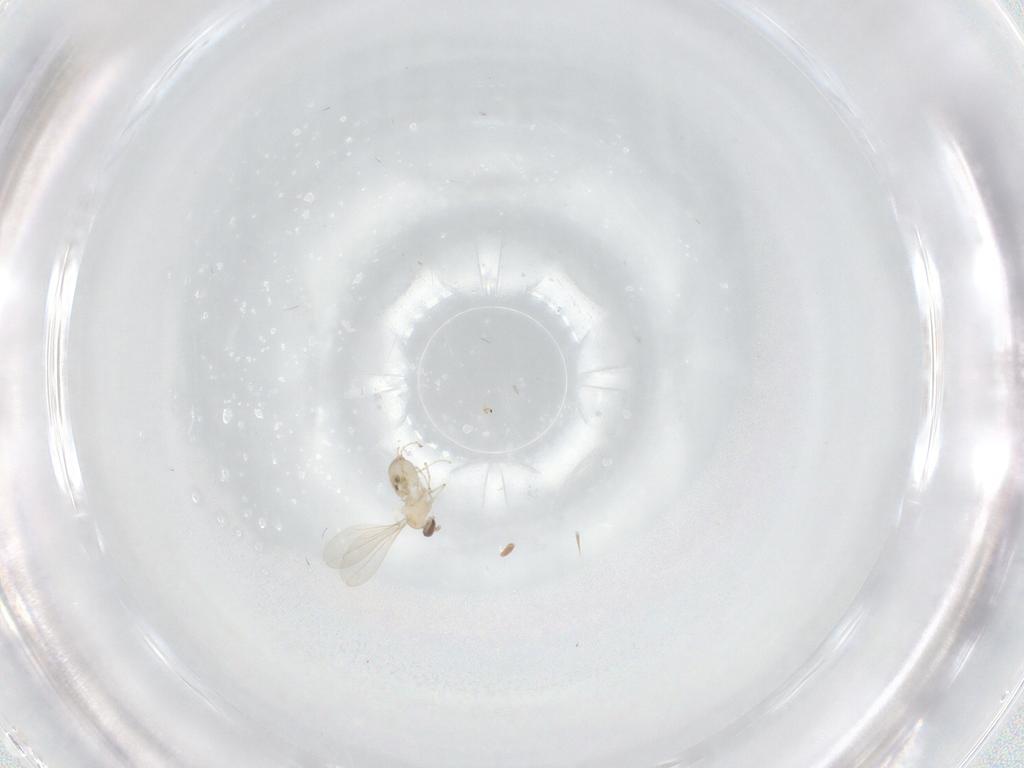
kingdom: Animalia
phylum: Arthropoda
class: Insecta
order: Diptera
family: Cecidomyiidae
